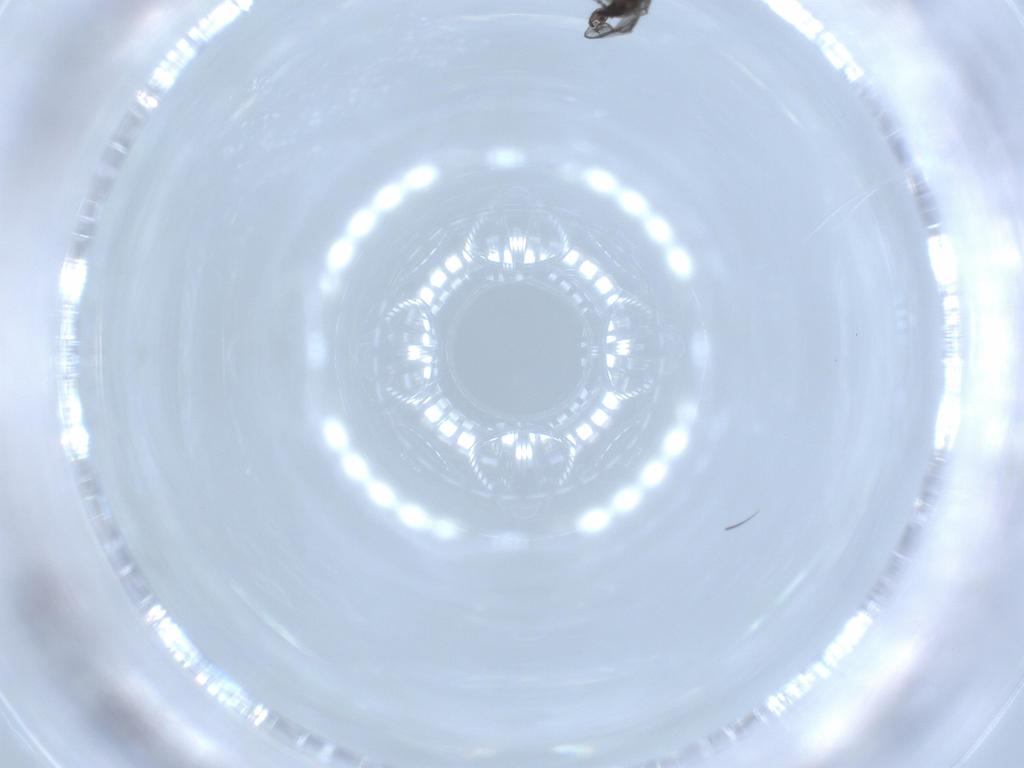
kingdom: Animalia
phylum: Arthropoda
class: Insecta
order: Diptera
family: Sciaridae
